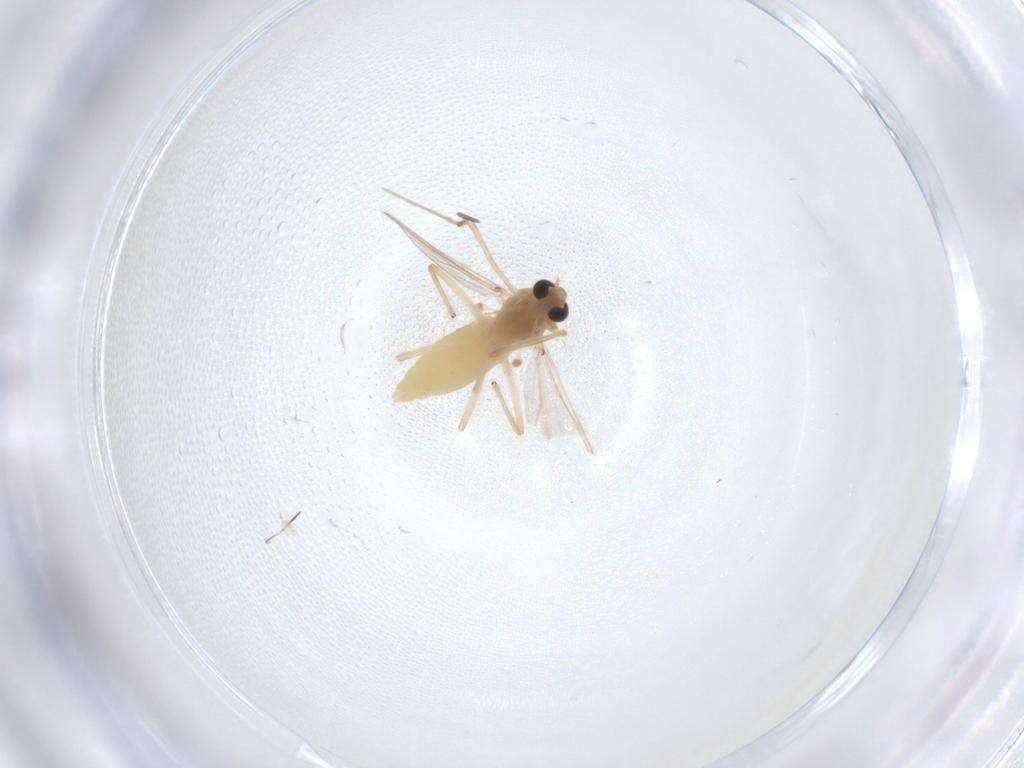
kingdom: Animalia
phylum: Arthropoda
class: Insecta
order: Diptera
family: Chironomidae
